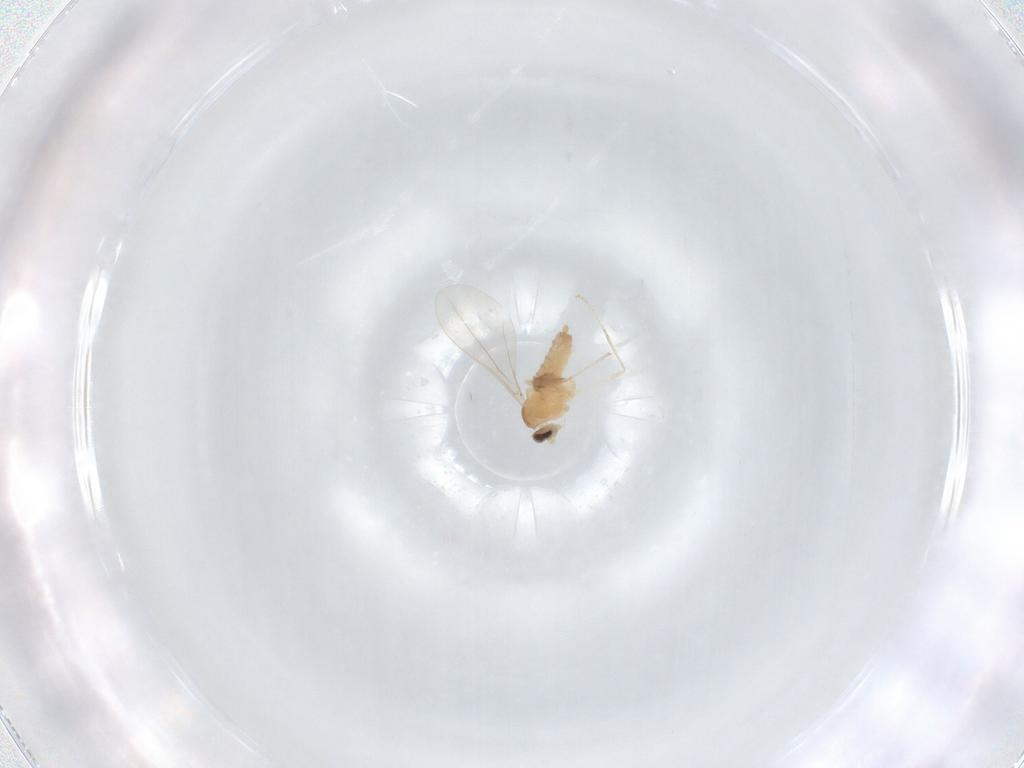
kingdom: Animalia
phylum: Arthropoda
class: Insecta
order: Diptera
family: Cecidomyiidae
